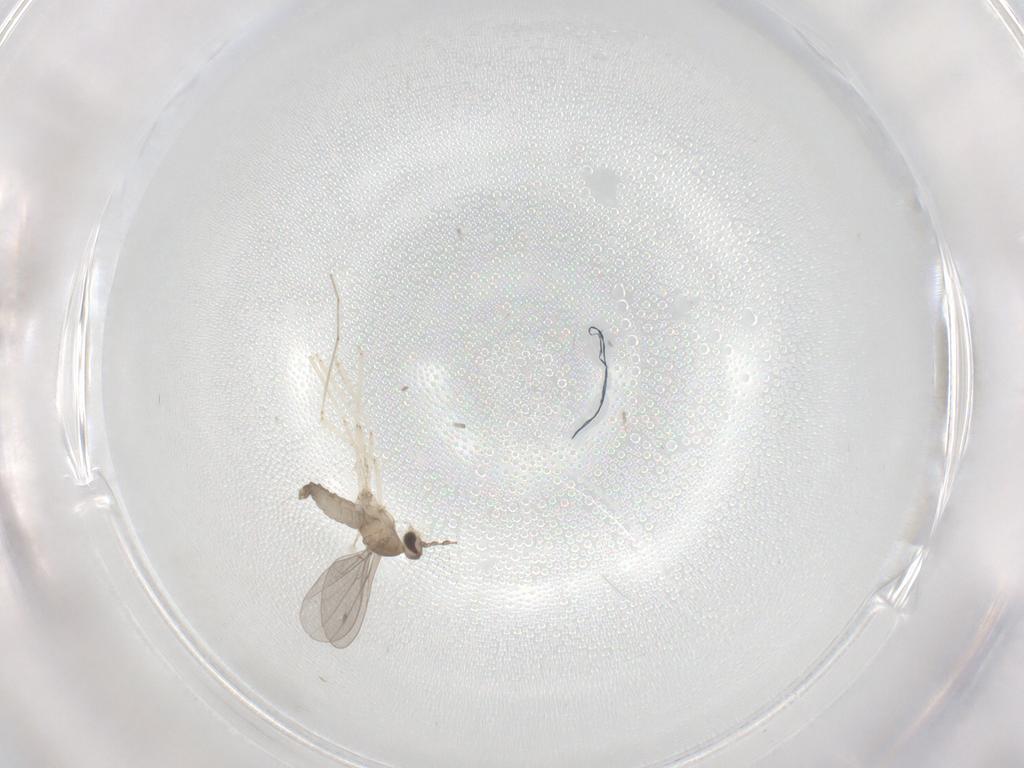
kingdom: Animalia
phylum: Arthropoda
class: Insecta
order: Diptera
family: Cecidomyiidae
